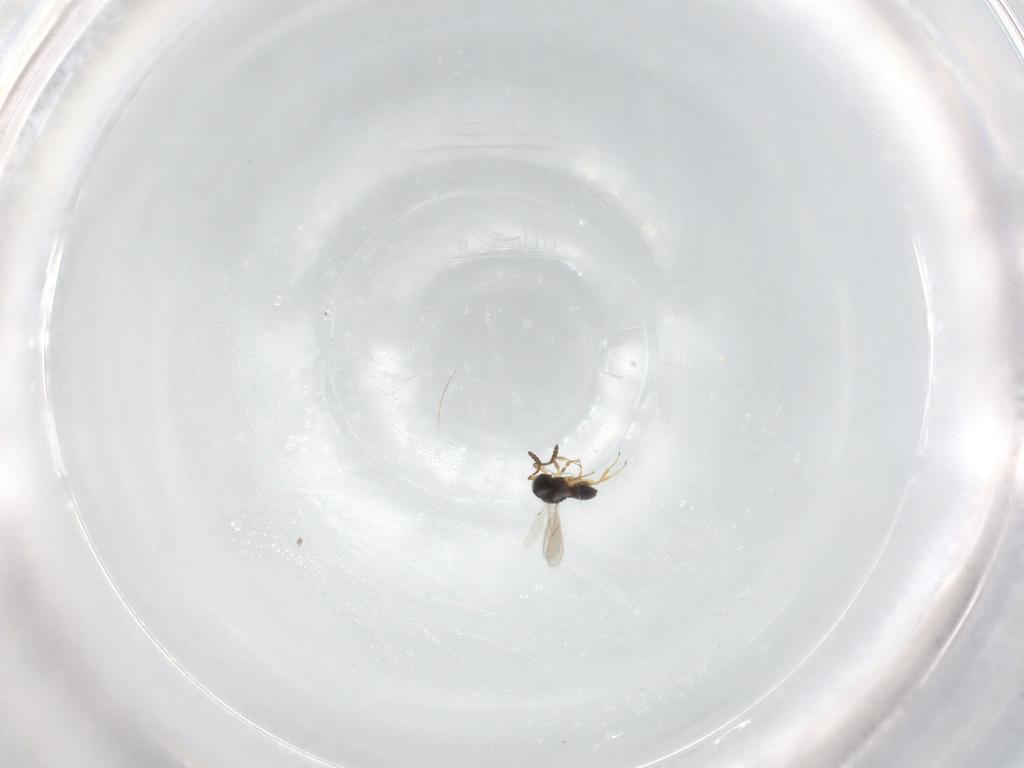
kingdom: Animalia
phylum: Arthropoda
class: Insecta
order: Hymenoptera
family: Scelionidae
